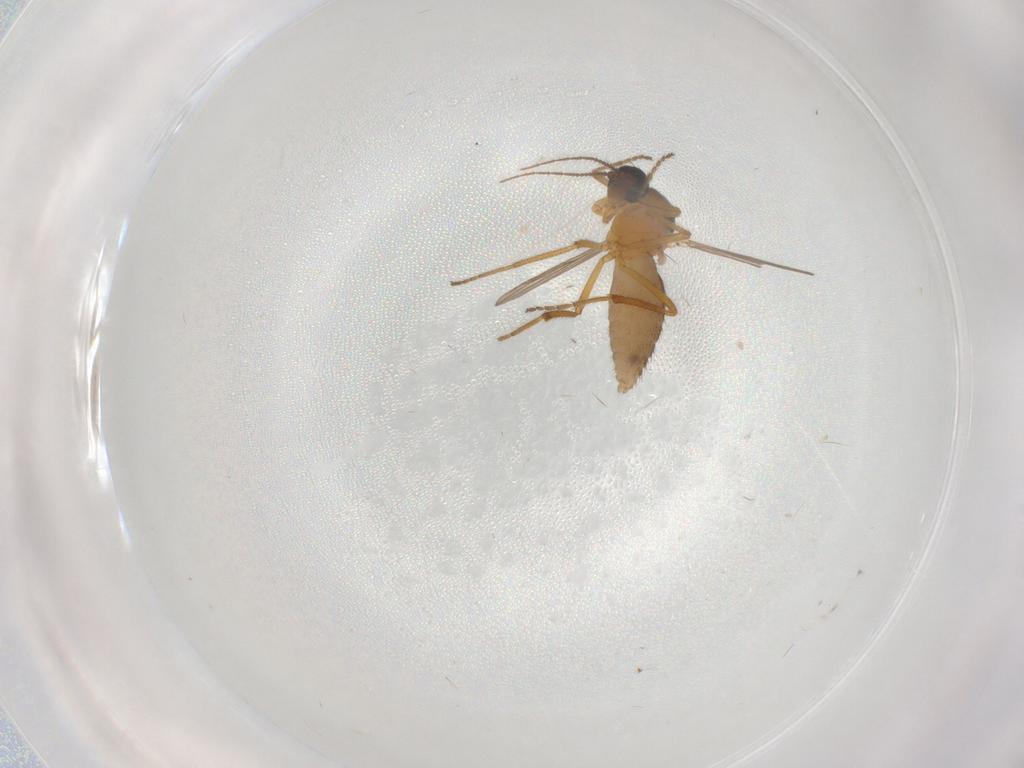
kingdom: Animalia
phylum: Arthropoda
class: Insecta
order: Diptera
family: Ceratopogonidae
